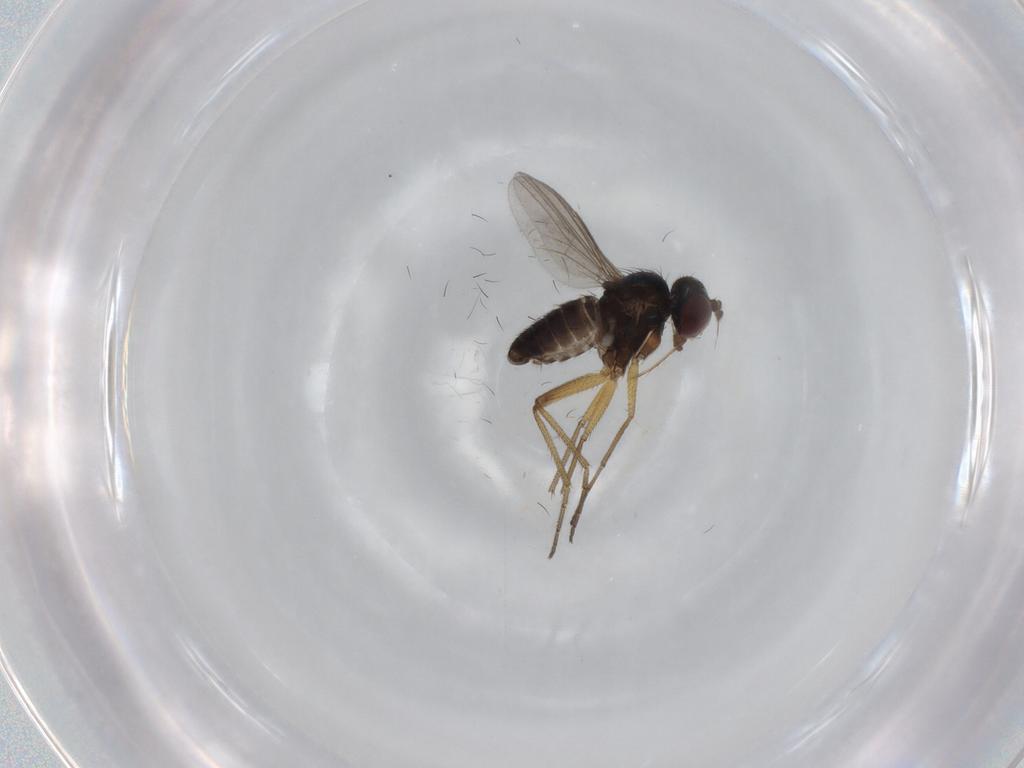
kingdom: Animalia
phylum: Arthropoda
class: Insecta
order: Diptera
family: Dolichopodidae
